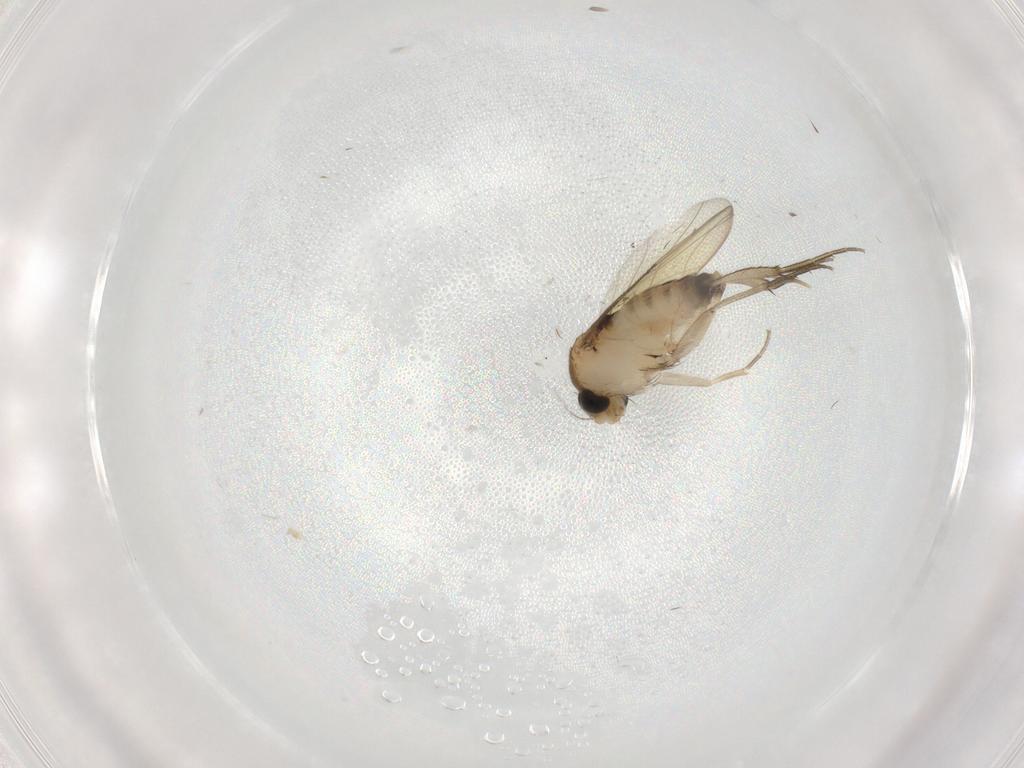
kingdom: Animalia
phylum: Arthropoda
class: Insecta
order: Diptera
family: Phoridae
